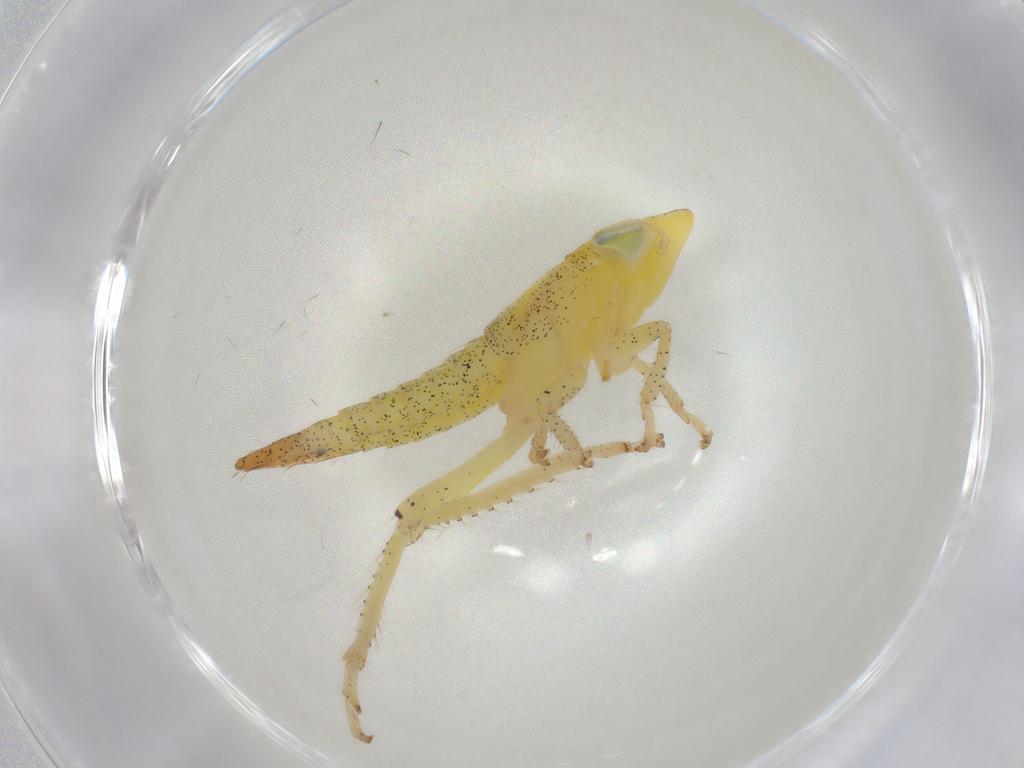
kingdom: Animalia
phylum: Arthropoda
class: Insecta
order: Hemiptera
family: Cicadellidae
